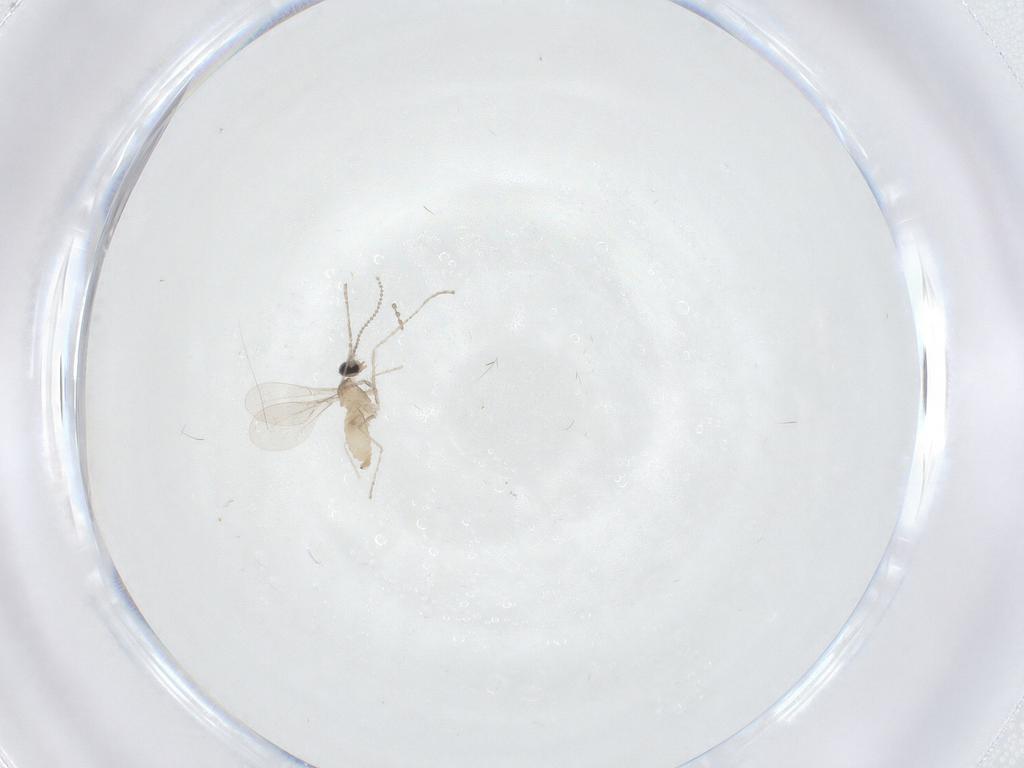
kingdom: Animalia
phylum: Arthropoda
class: Insecta
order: Diptera
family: Cecidomyiidae
